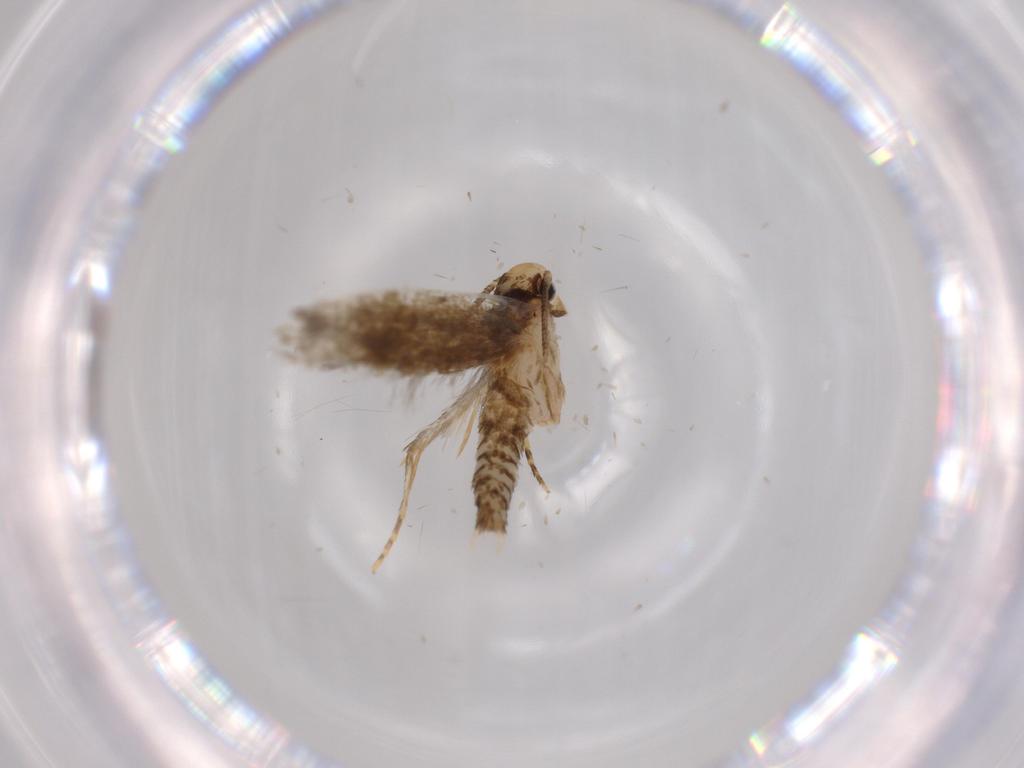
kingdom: Animalia
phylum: Arthropoda
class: Insecta
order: Lepidoptera
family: Tineidae
